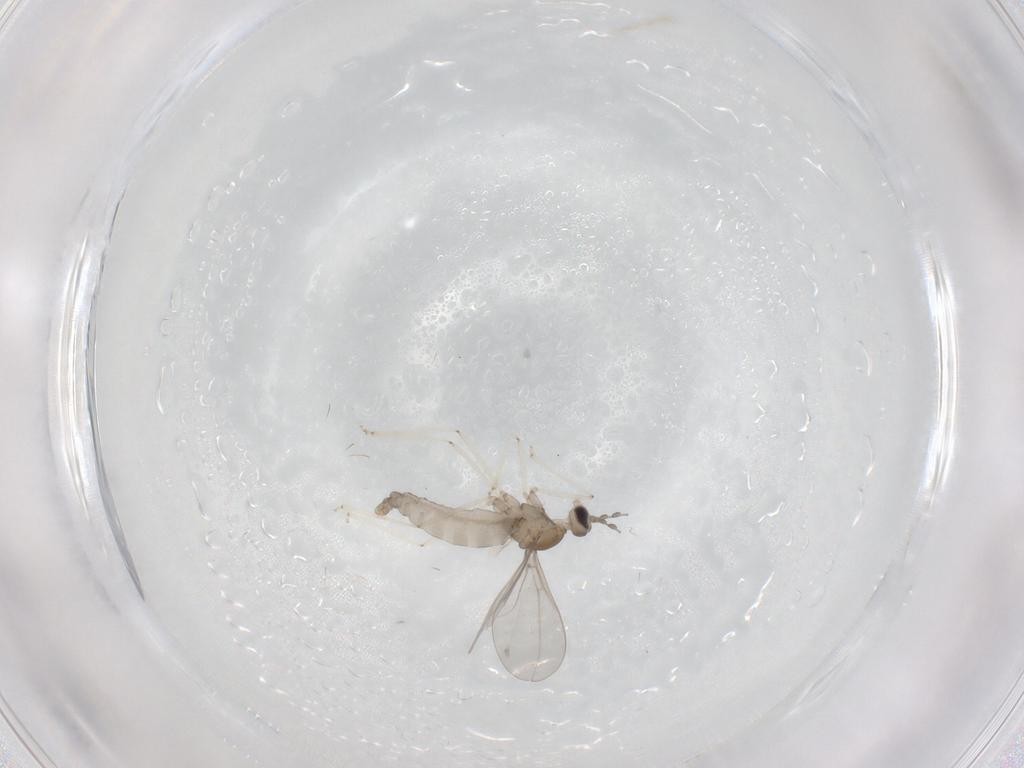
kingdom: Animalia
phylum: Arthropoda
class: Insecta
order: Diptera
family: Cecidomyiidae
